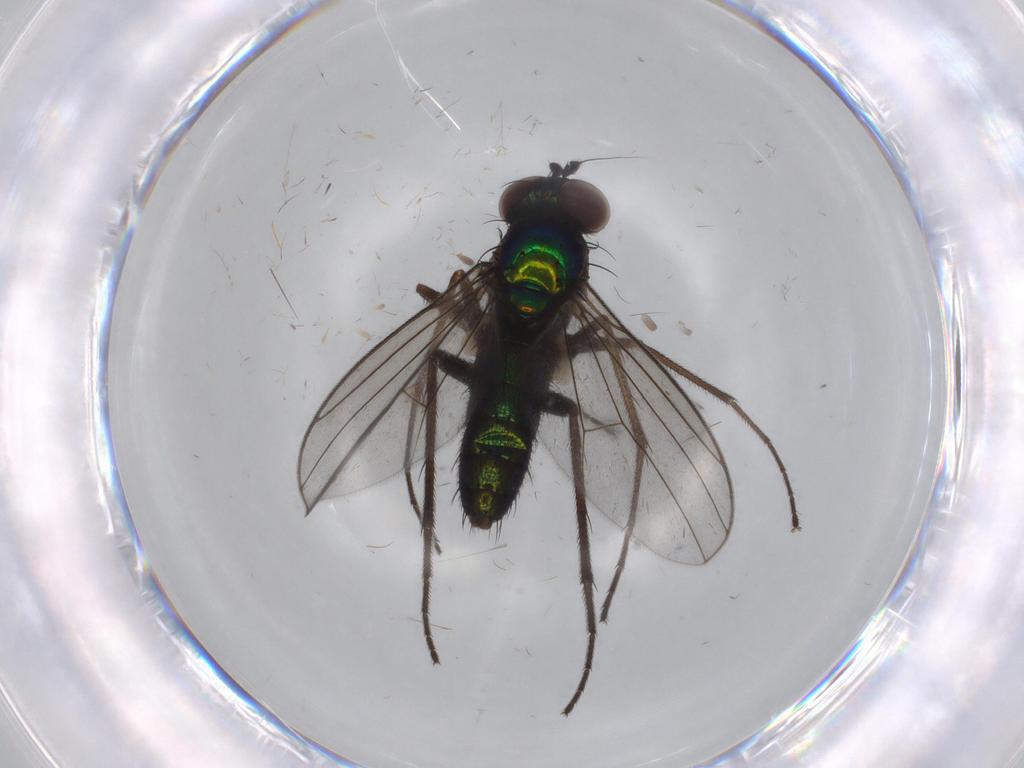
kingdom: Animalia
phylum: Arthropoda
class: Insecta
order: Diptera
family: Dolichopodidae
